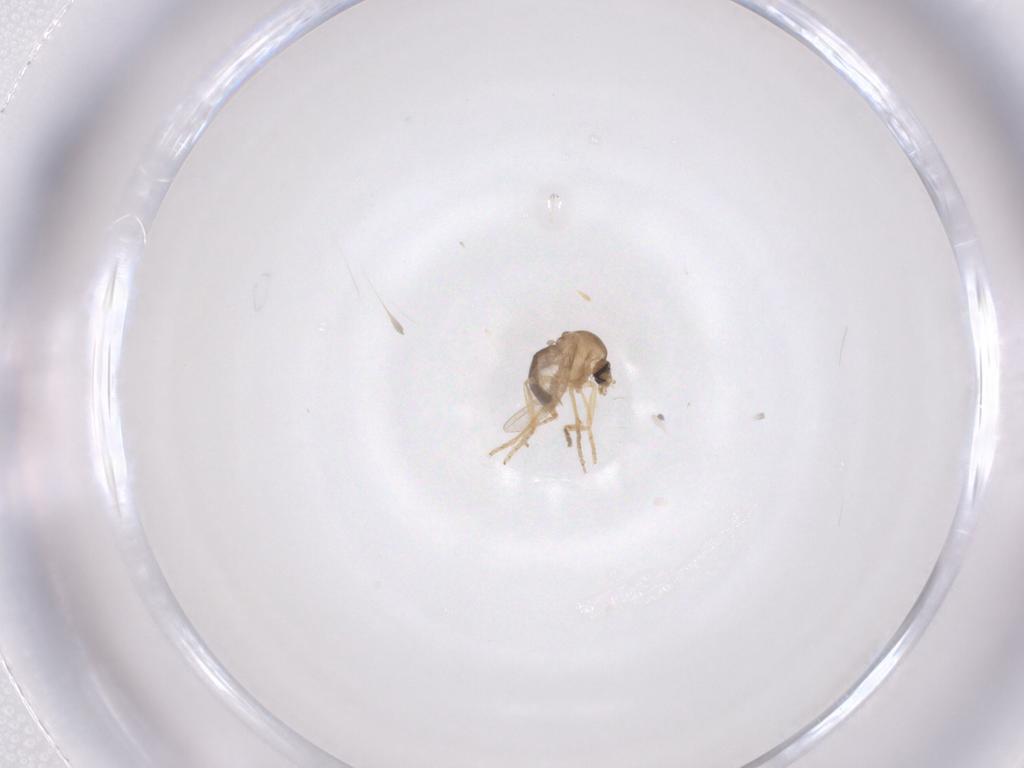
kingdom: Animalia
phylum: Arthropoda
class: Insecta
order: Diptera
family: Ceratopogonidae
